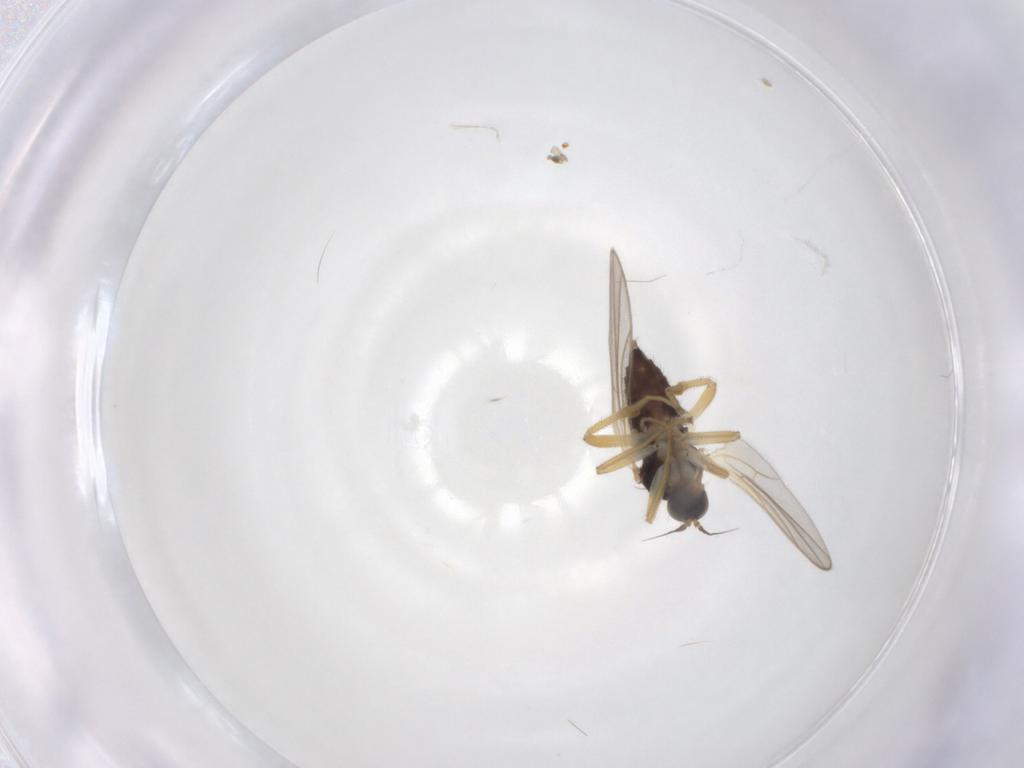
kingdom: Animalia
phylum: Arthropoda
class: Insecta
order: Diptera
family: Hybotidae
